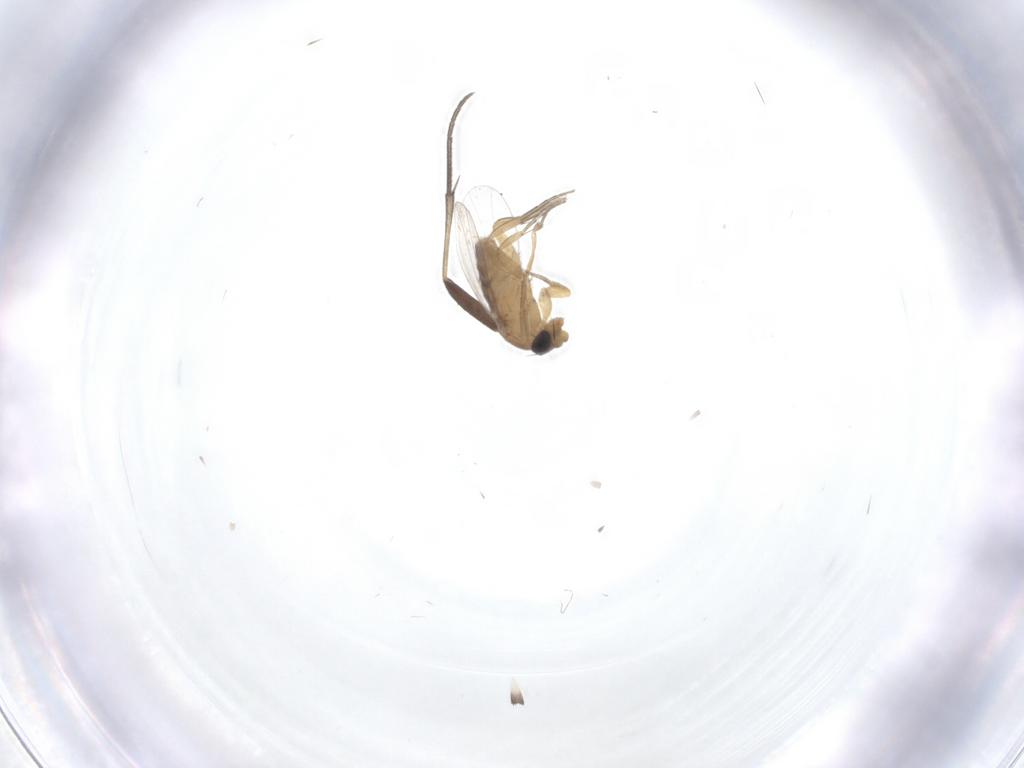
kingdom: Animalia
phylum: Arthropoda
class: Insecta
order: Diptera
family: Keroplatidae
